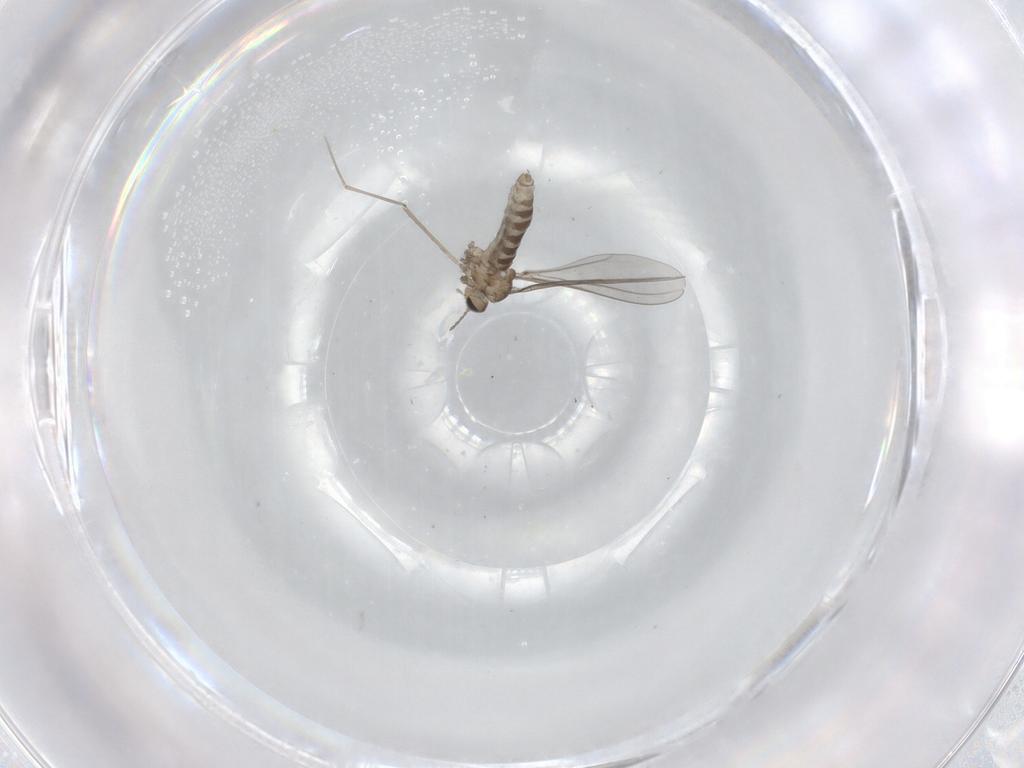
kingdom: Animalia
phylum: Arthropoda
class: Insecta
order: Diptera
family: Cecidomyiidae
